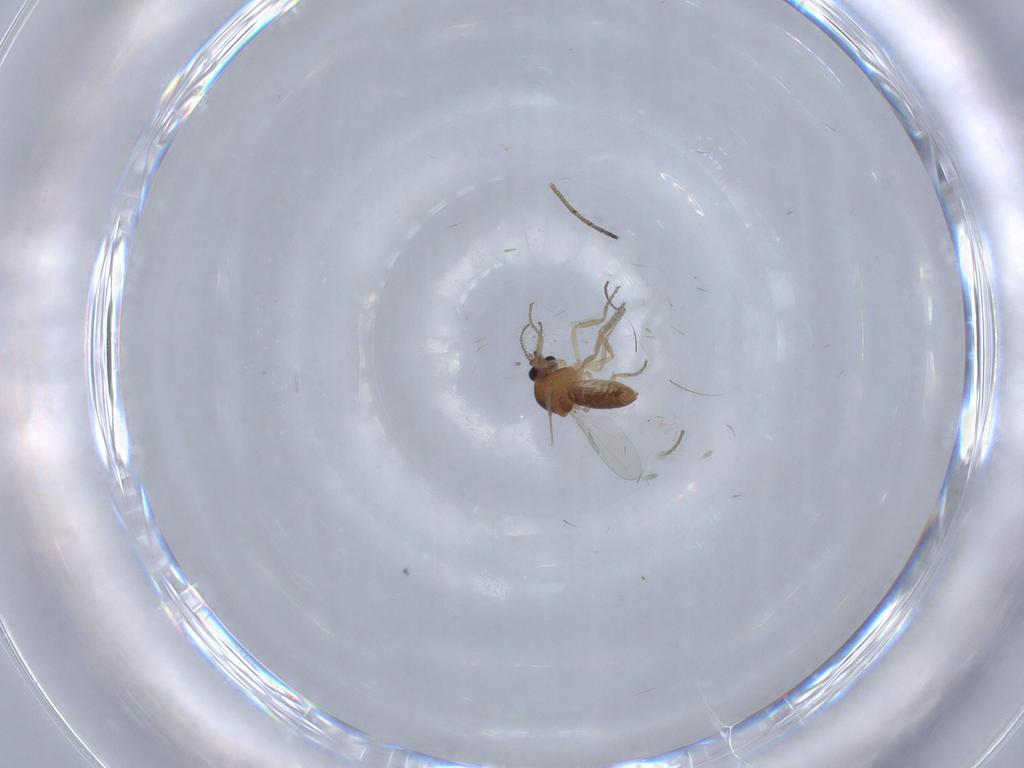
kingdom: Animalia
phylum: Arthropoda
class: Insecta
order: Diptera
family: Cecidomyiidae
